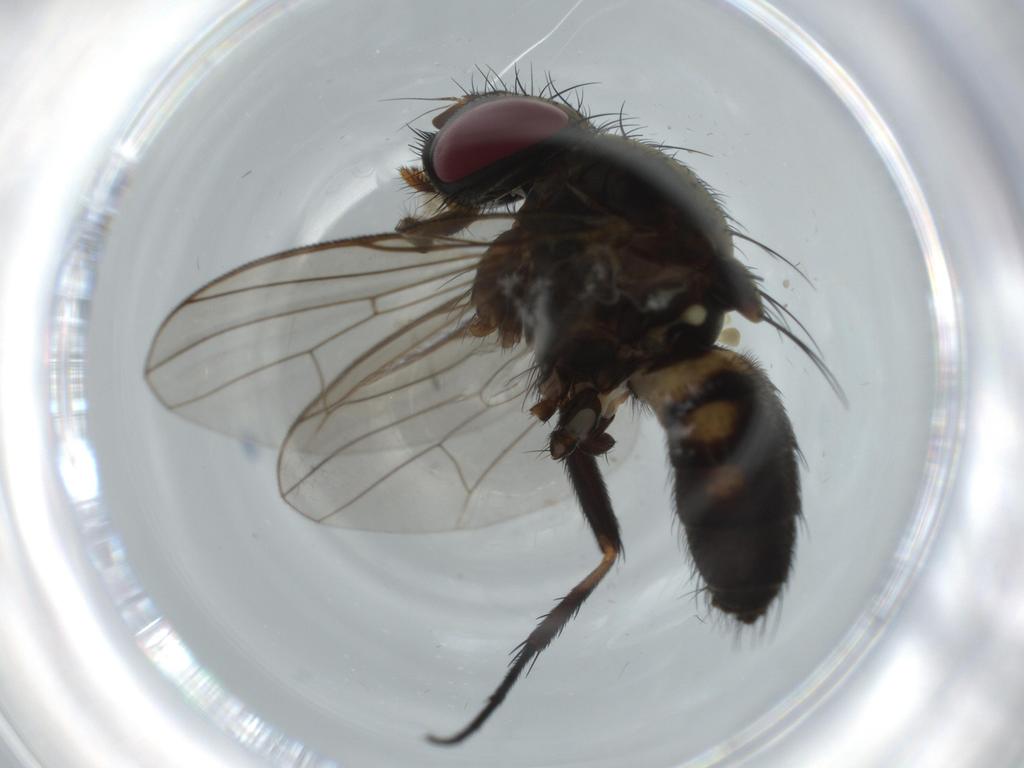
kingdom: Animalia
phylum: Arthropoda
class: Insecta
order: Diptera
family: Fannia
